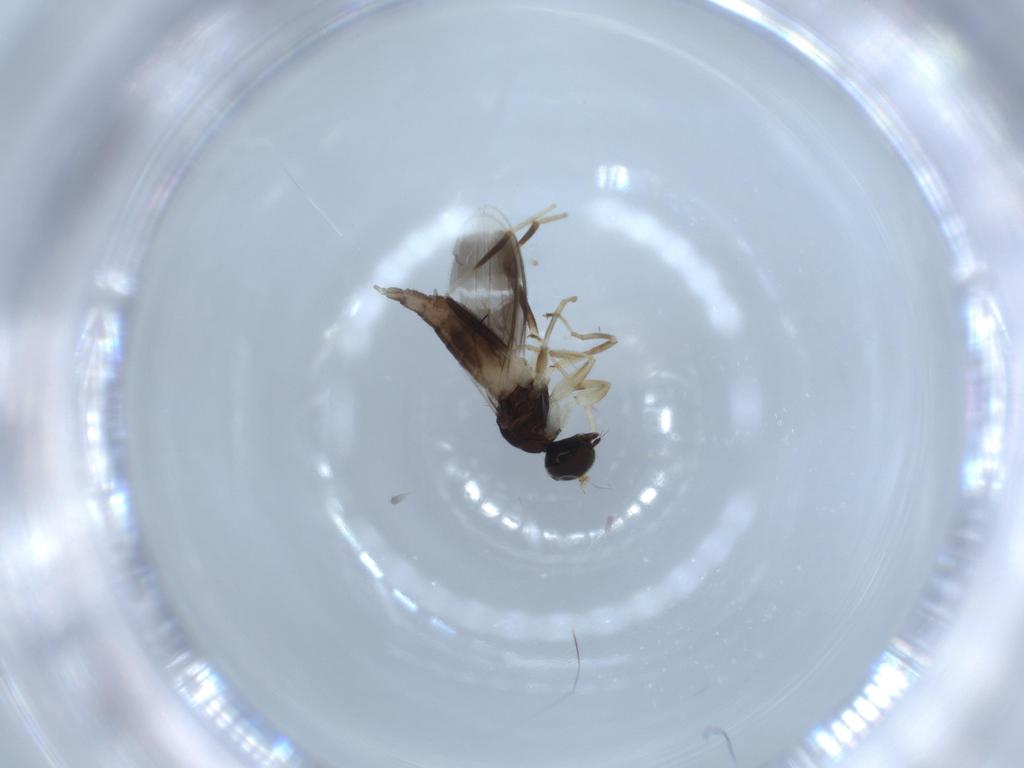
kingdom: Animalia
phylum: Arthropoda
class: Insecta
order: Diptera
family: Hybotidae
